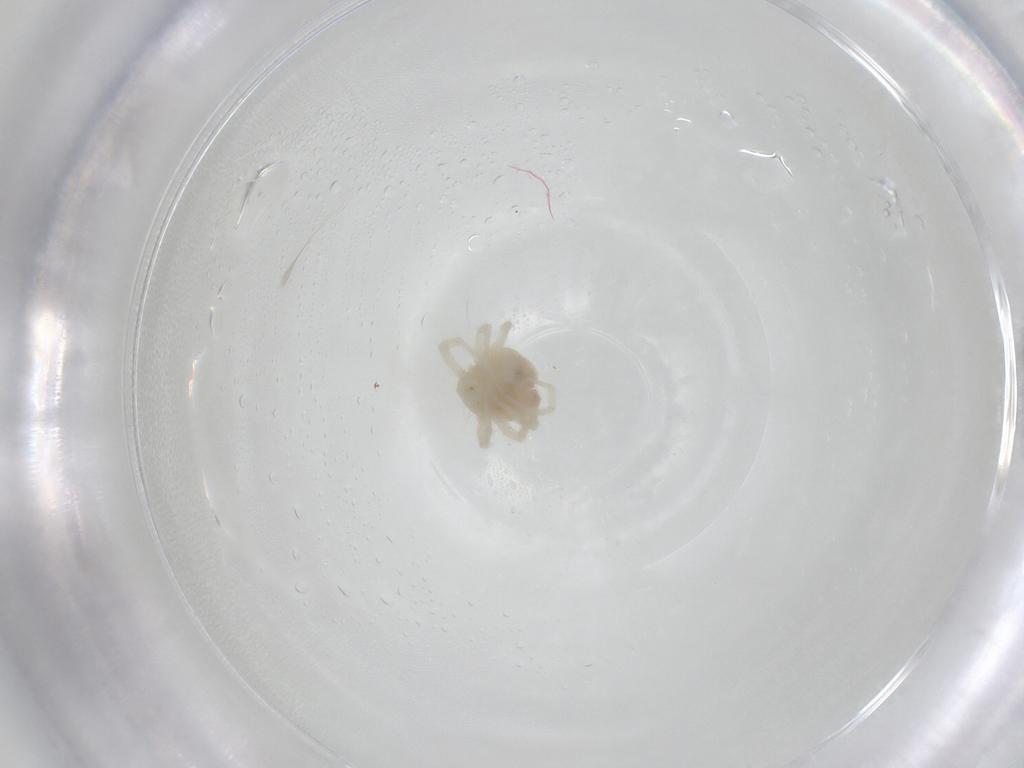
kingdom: Animalia
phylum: Arthropoda
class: Arachnida
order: Trombidiformes
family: Anystidae
